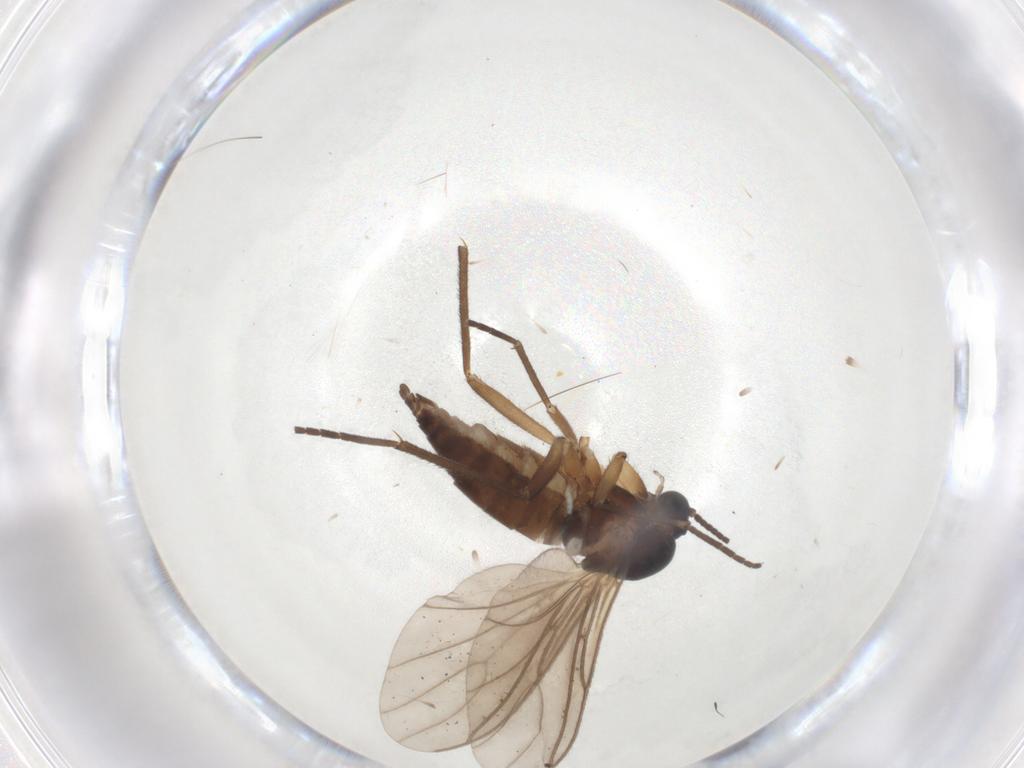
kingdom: Animalia
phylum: Arthropoda
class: Insecta
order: Diptera
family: Sciaridae
